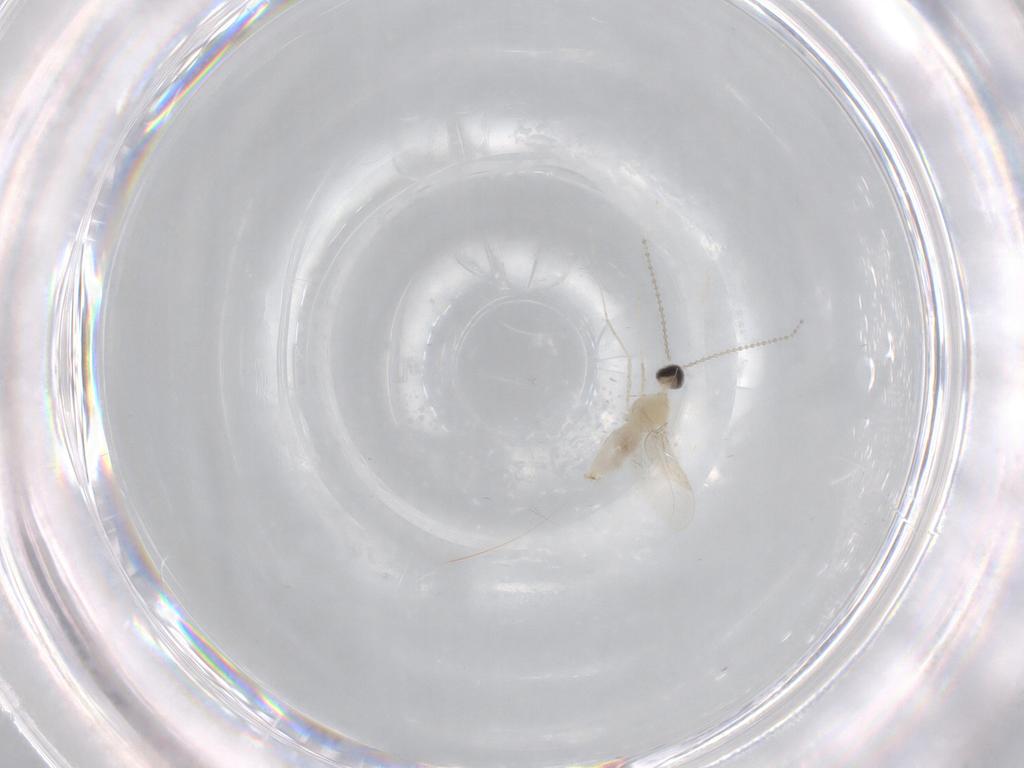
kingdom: Animalia
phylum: Arthropoda
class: Insecta
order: Diptera
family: Cecidomyiidae
